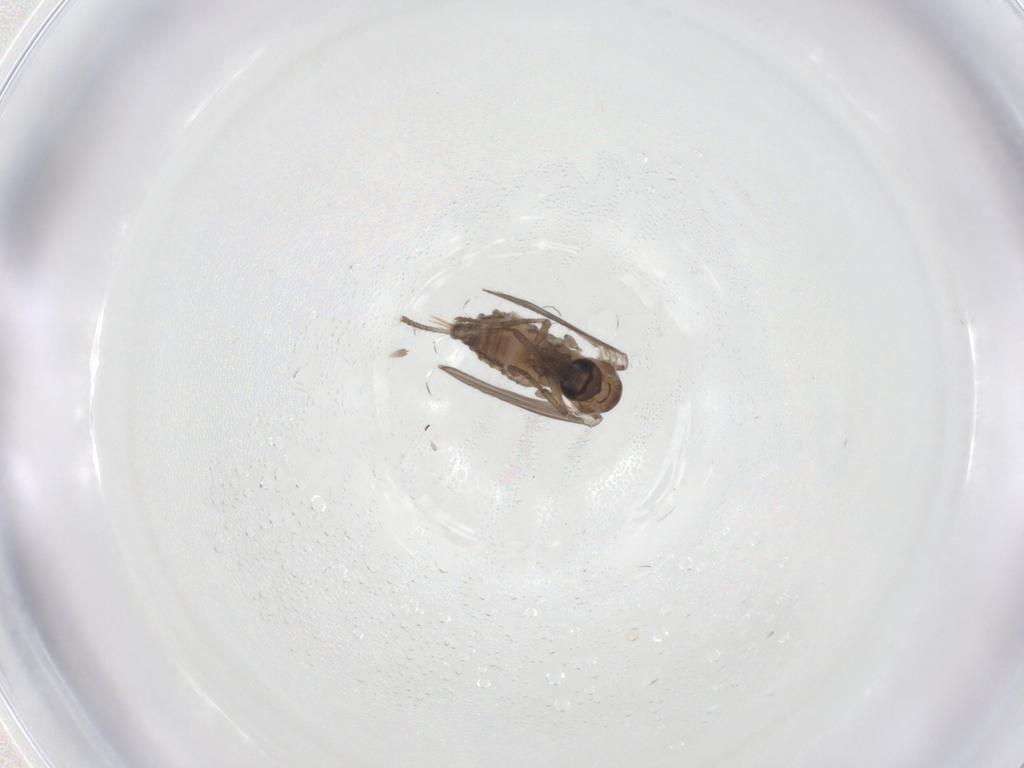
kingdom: Animalia
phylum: Arthropoda
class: Insecta
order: Diptera
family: Psychodidae
